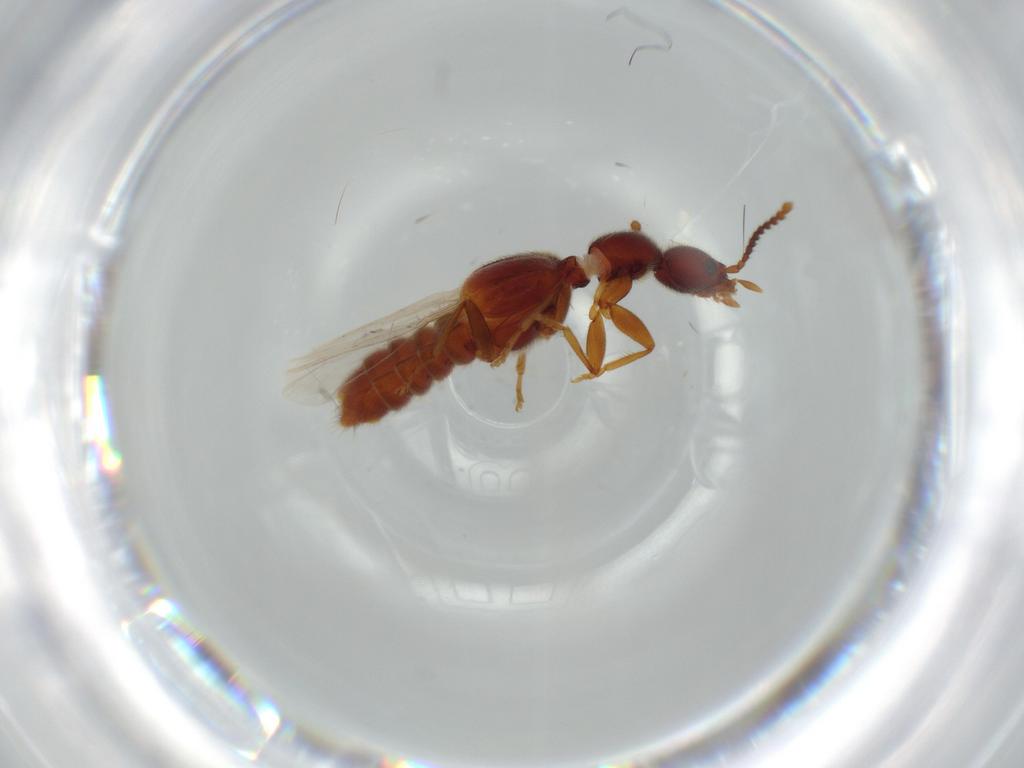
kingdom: Animalia
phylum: Arthropoda
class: Insecta
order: Coleoptera
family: Chrysomelidae
